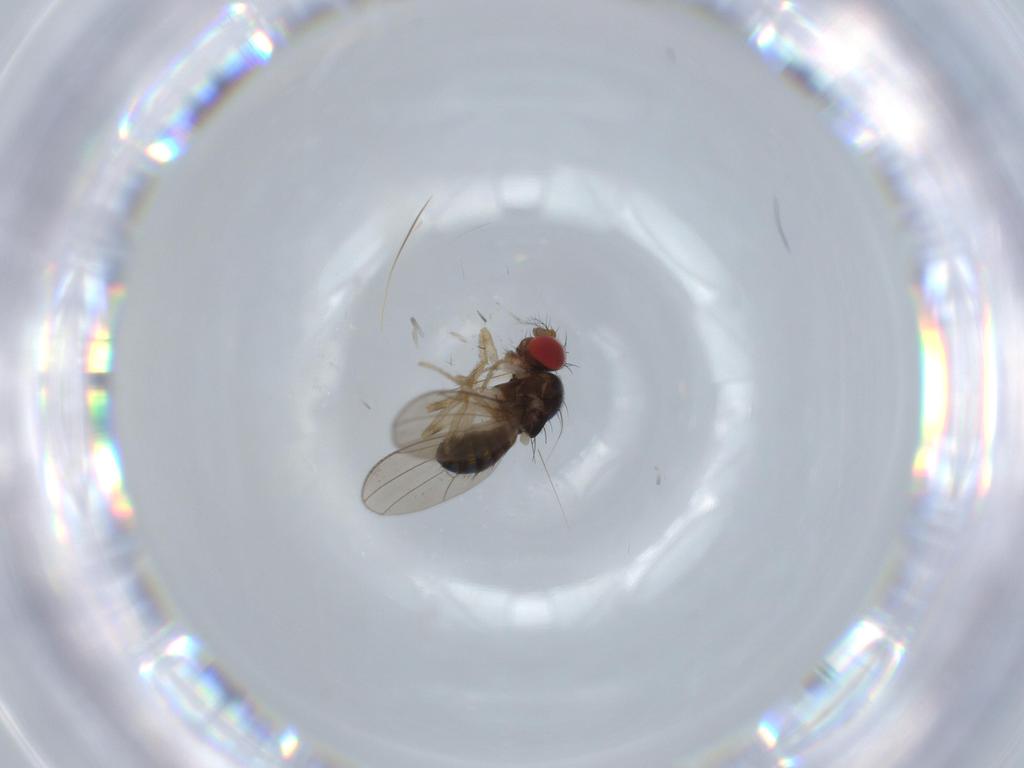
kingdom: Animalia
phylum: Arthropoda
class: Insecta
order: Diptera
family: Drosophilidae
